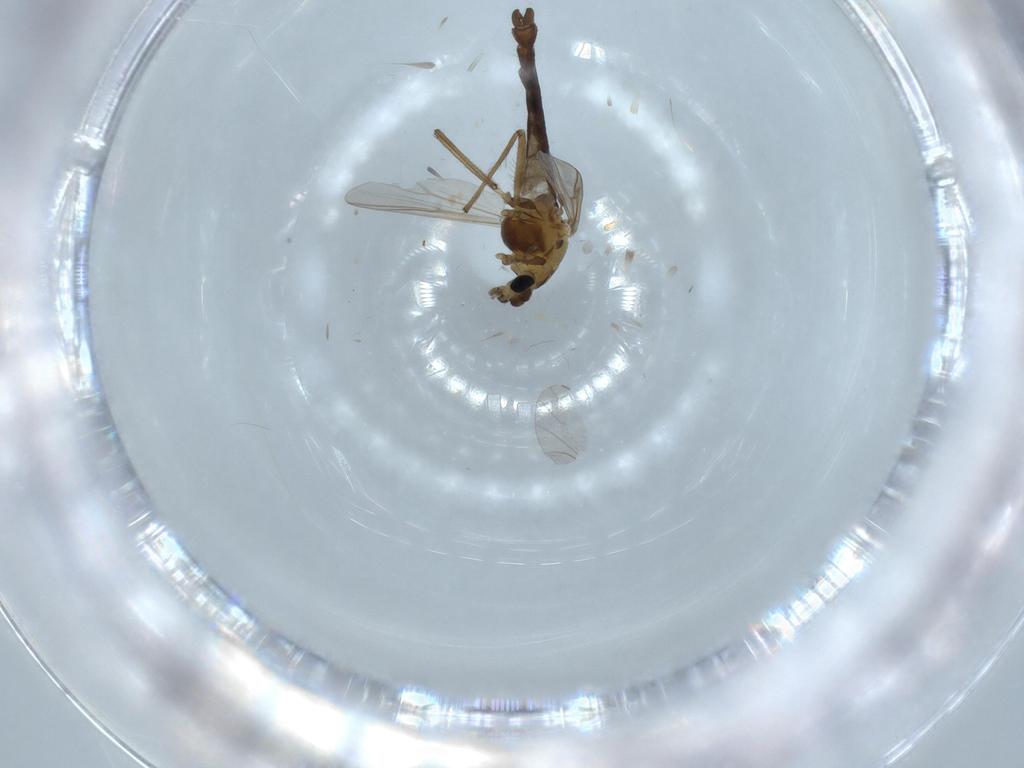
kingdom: Animalia
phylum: Arthropoda
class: Insecta
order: Diptera
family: Chironomidae
